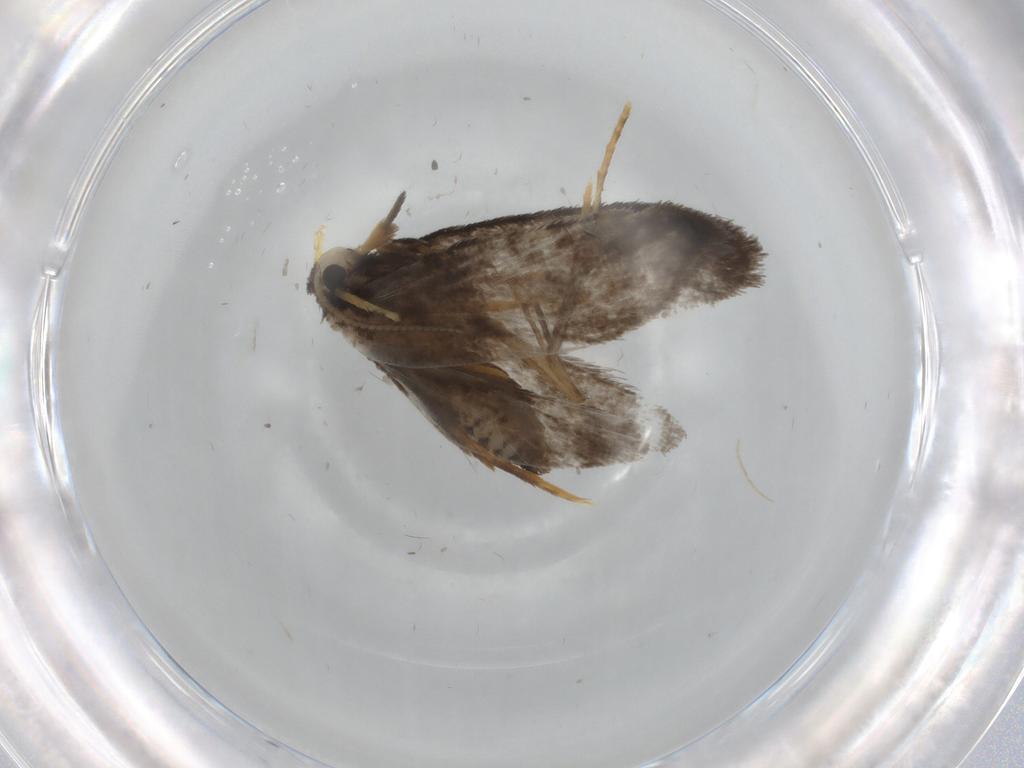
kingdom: Animalia
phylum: Arthropoda
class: Insecta
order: Lepidoptera
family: Psychidae
